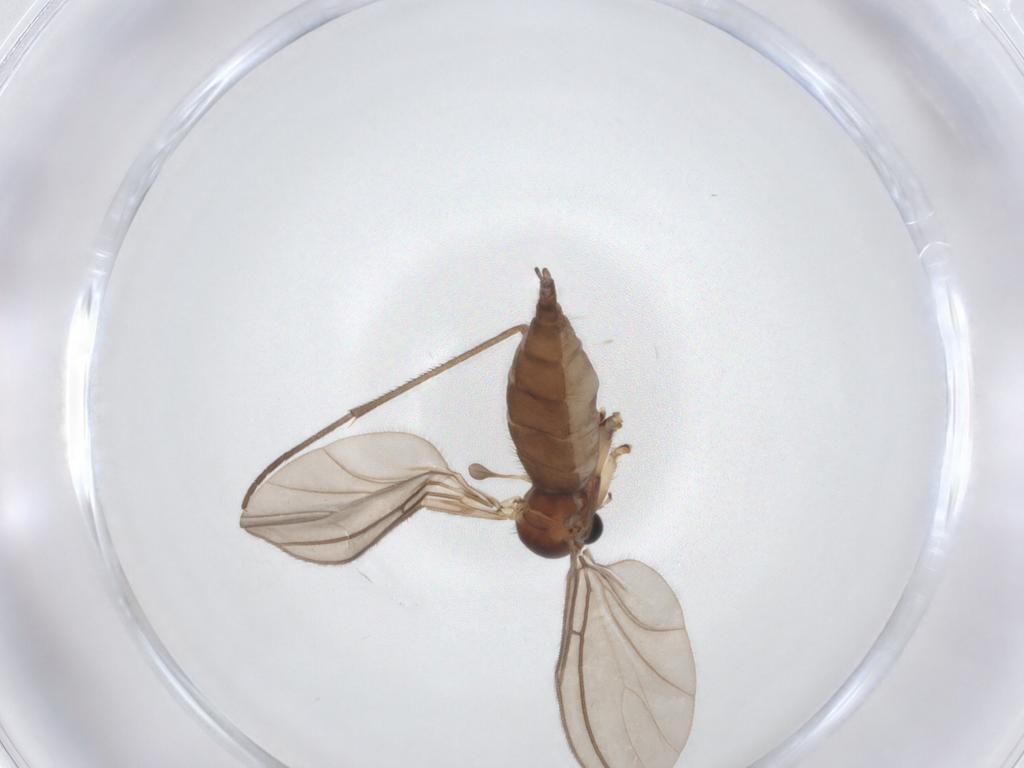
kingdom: Animalia
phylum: Arthropoda
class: Insecta
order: Diptera
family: Sciaridae
